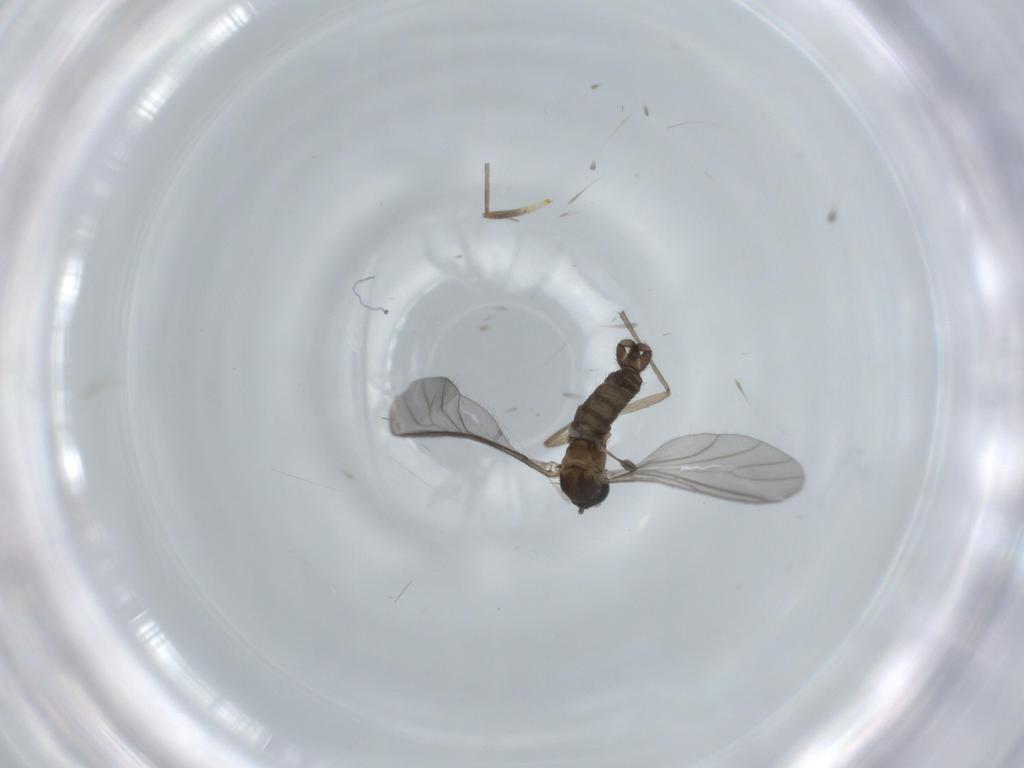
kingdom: Animalia
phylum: Arthropoda
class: Insecta
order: Diptera
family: Sciaridae
